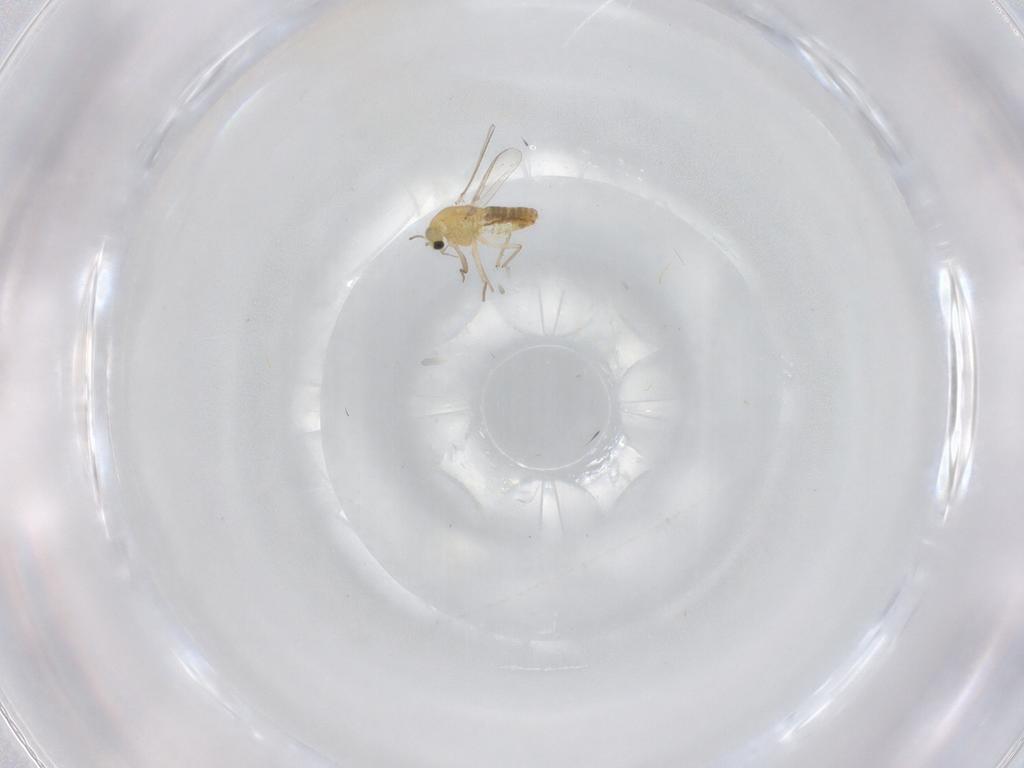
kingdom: Animalia
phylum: Arthropoda
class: Insecta
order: Diptera
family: Chironomidae
